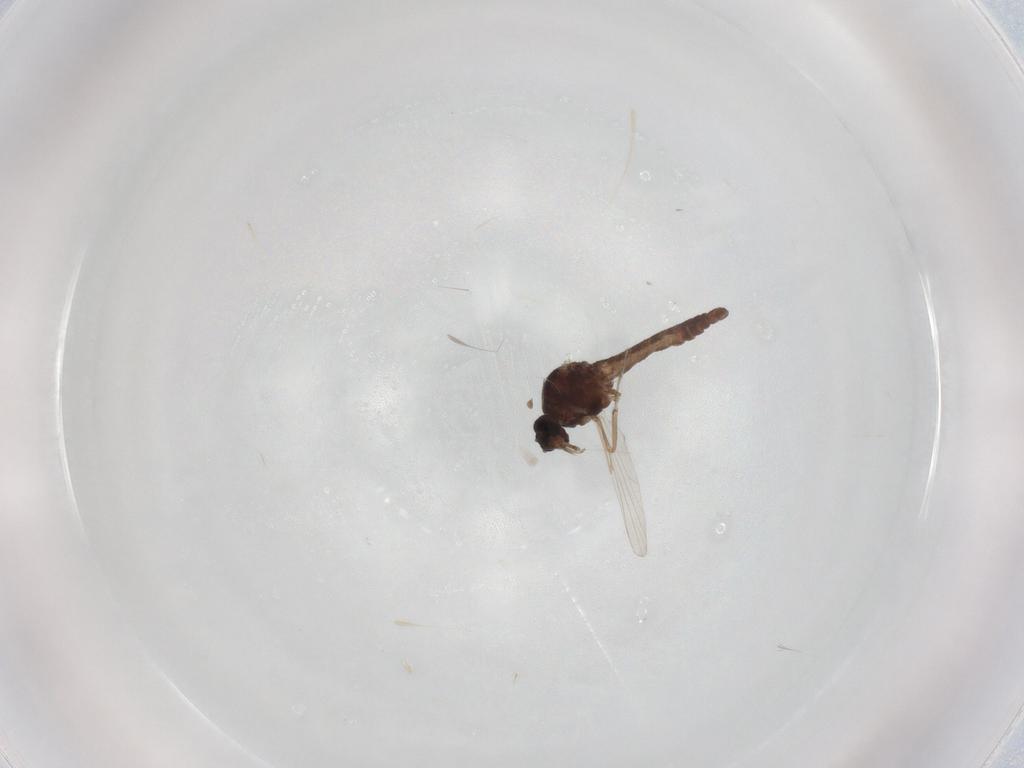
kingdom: Animalia
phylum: Arthropoda
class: Insecta
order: Diptera
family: Ceratopogonidae
